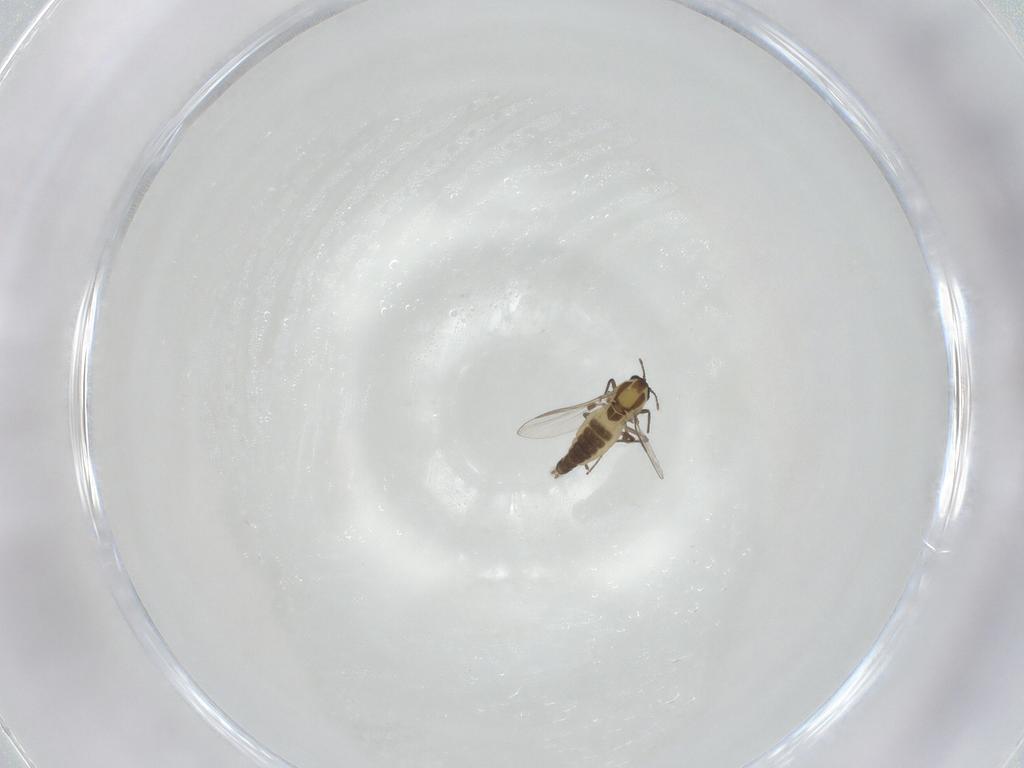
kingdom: Animalia
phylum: Arthropoda
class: Insecta
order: Diptera
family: Chironomidae
